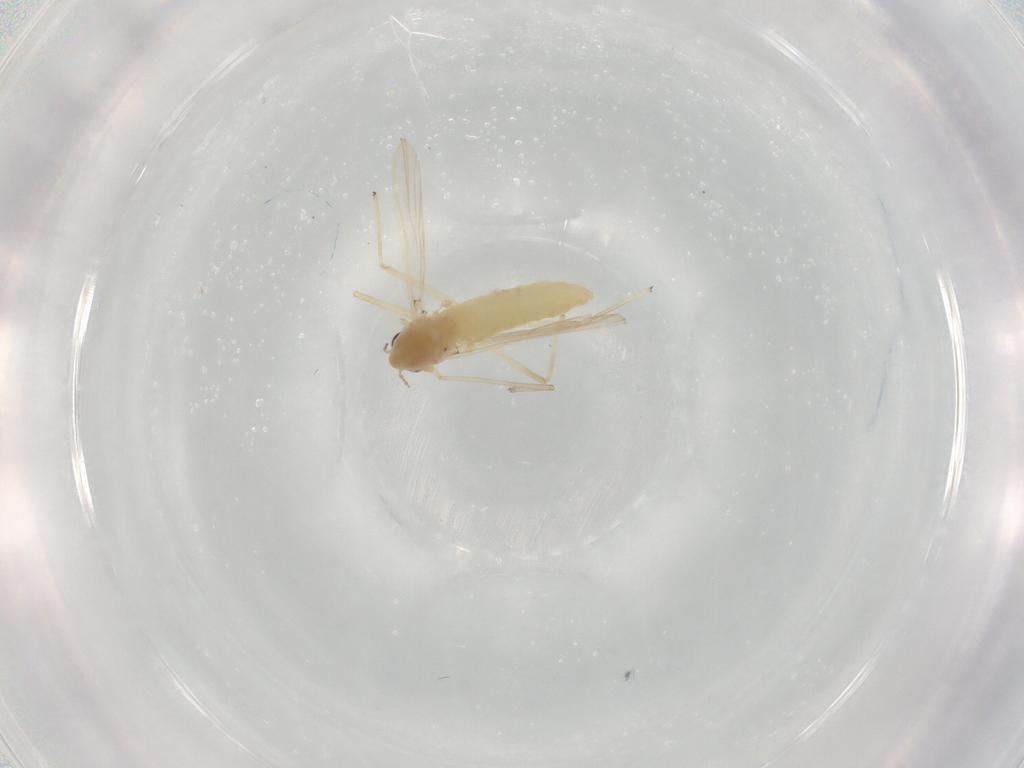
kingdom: Animalia
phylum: Arthropoda
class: Insecta
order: Diptera
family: Chironomidae
